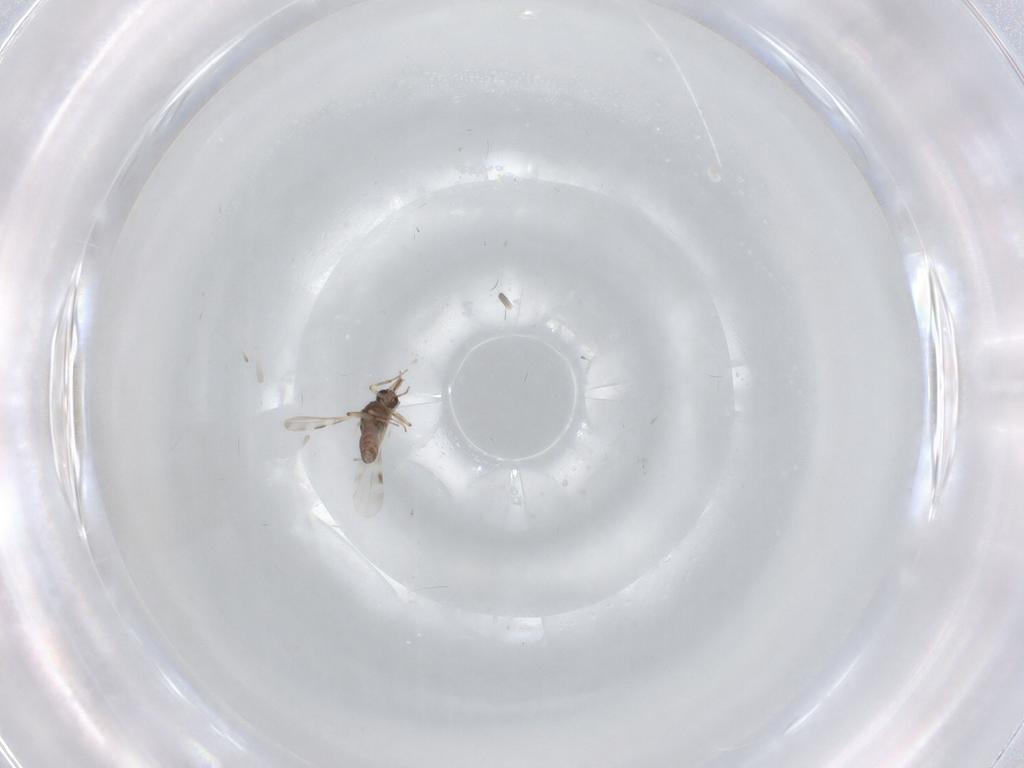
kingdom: Animalia
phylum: Arthropoda
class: Insecta
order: Diptera
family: Phoridae
